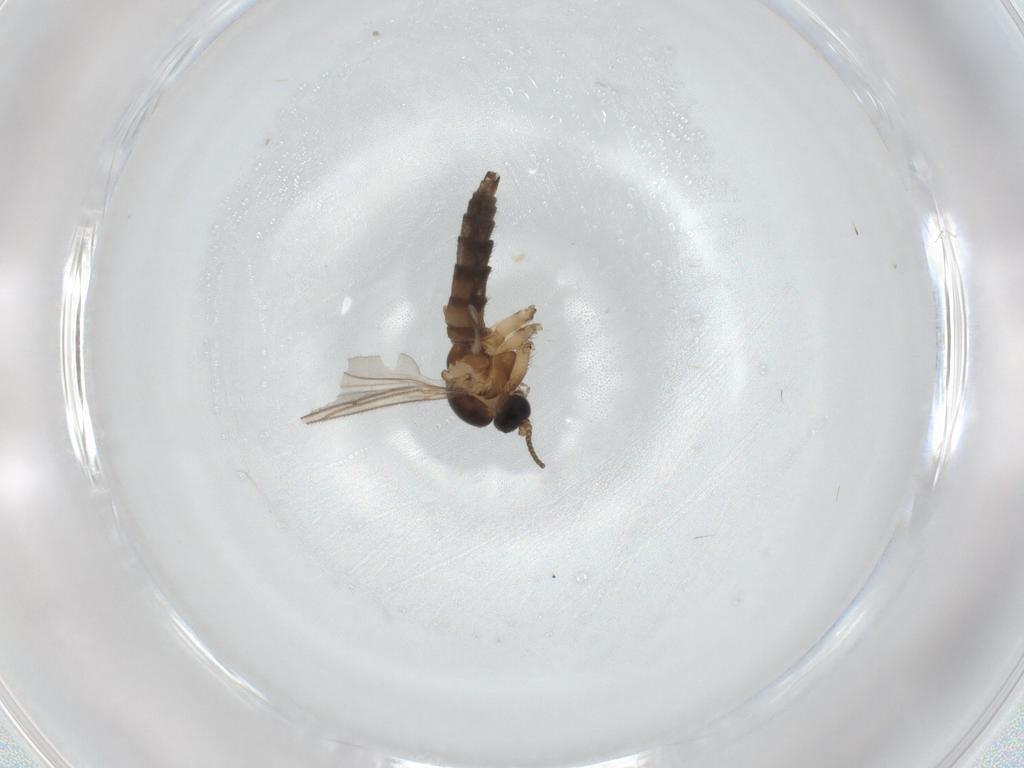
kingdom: Animalia
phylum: Arthropoda
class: Insecta
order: Diptera
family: Sciaridae
